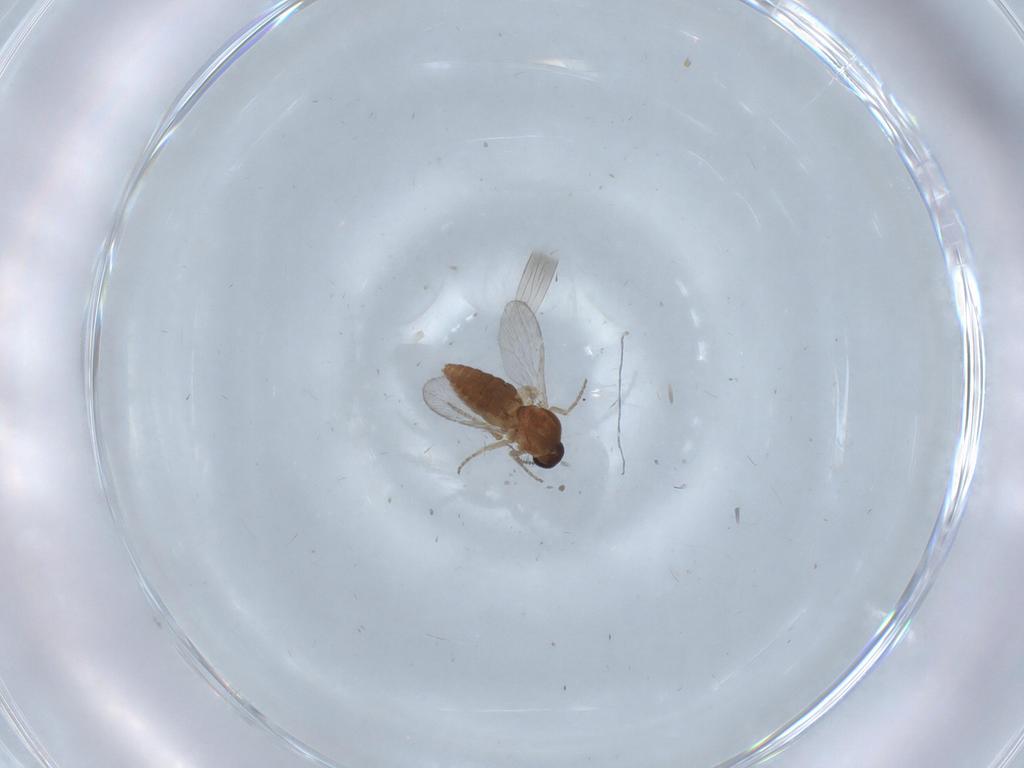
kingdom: Animalia
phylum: Arthropoda
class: Insecta
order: Diptera
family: Ceratopogonidae
